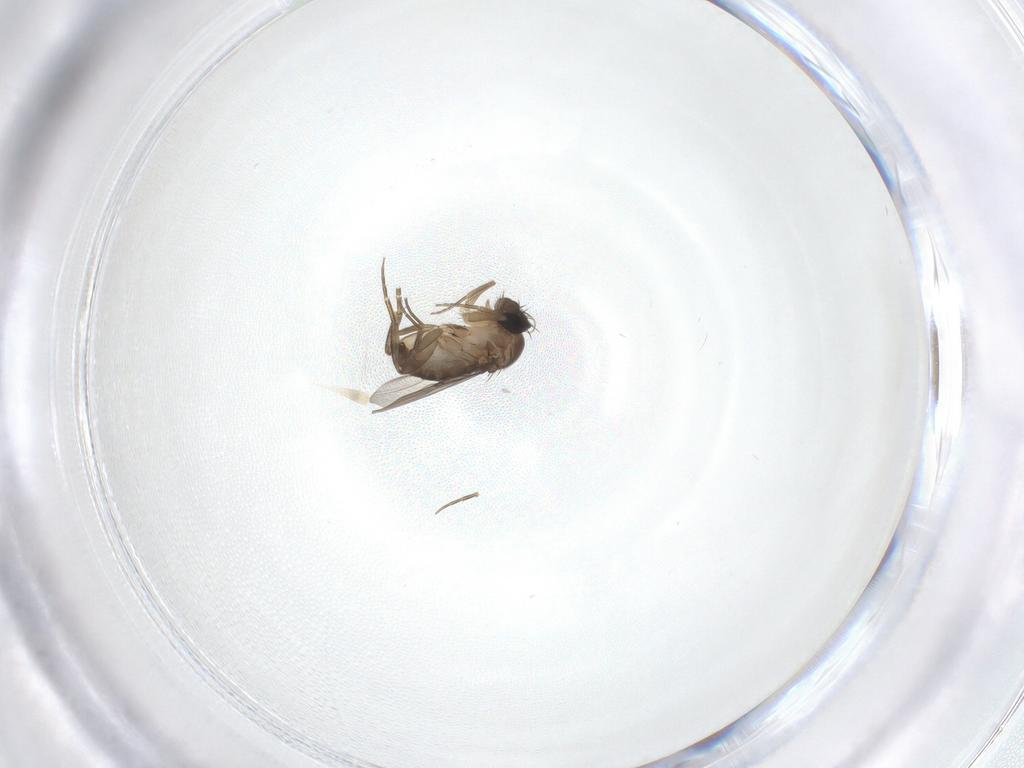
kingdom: Animalia
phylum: Arthropoda
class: Insecta
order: Diptera
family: Phoridae
